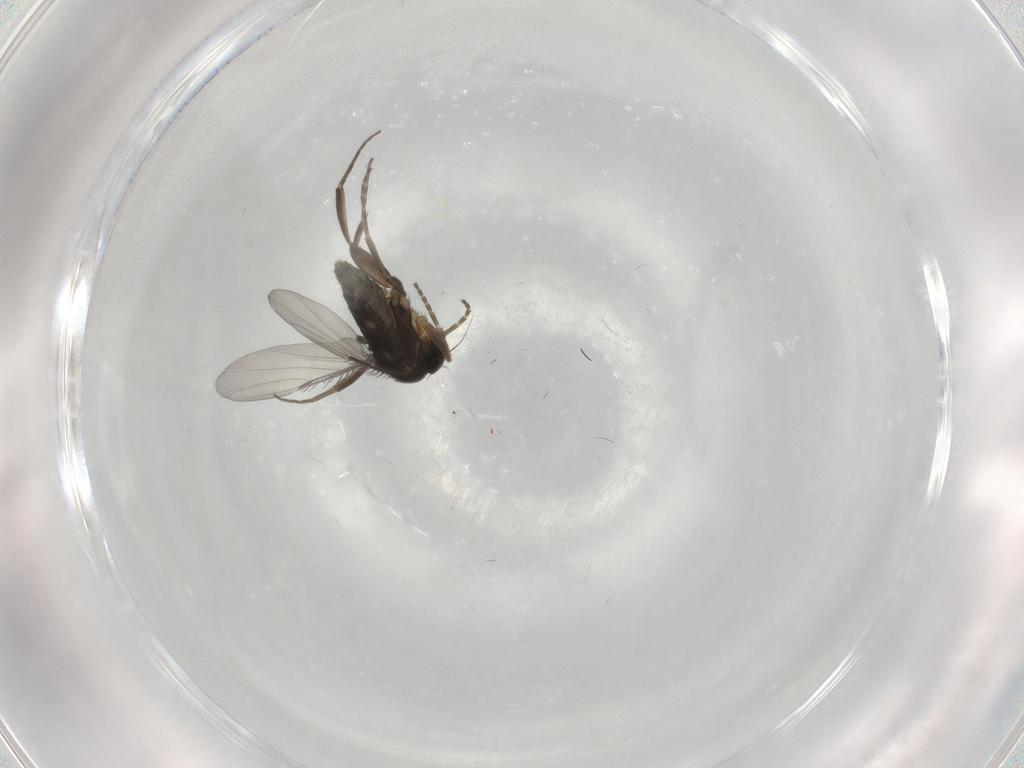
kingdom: Animalia
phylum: Arthropoda
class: Insecta
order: Diptera
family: Phoridae
